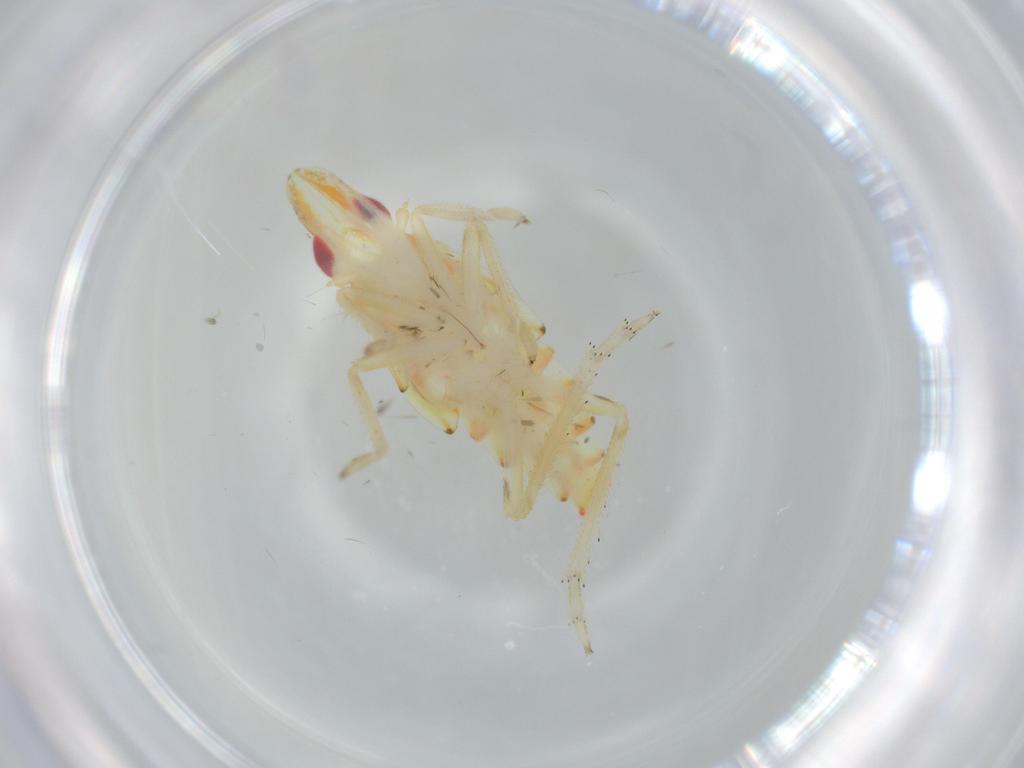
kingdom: Animalia
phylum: Arthropoda
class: Insecta
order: Hemiptera
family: Tropiduchidae
